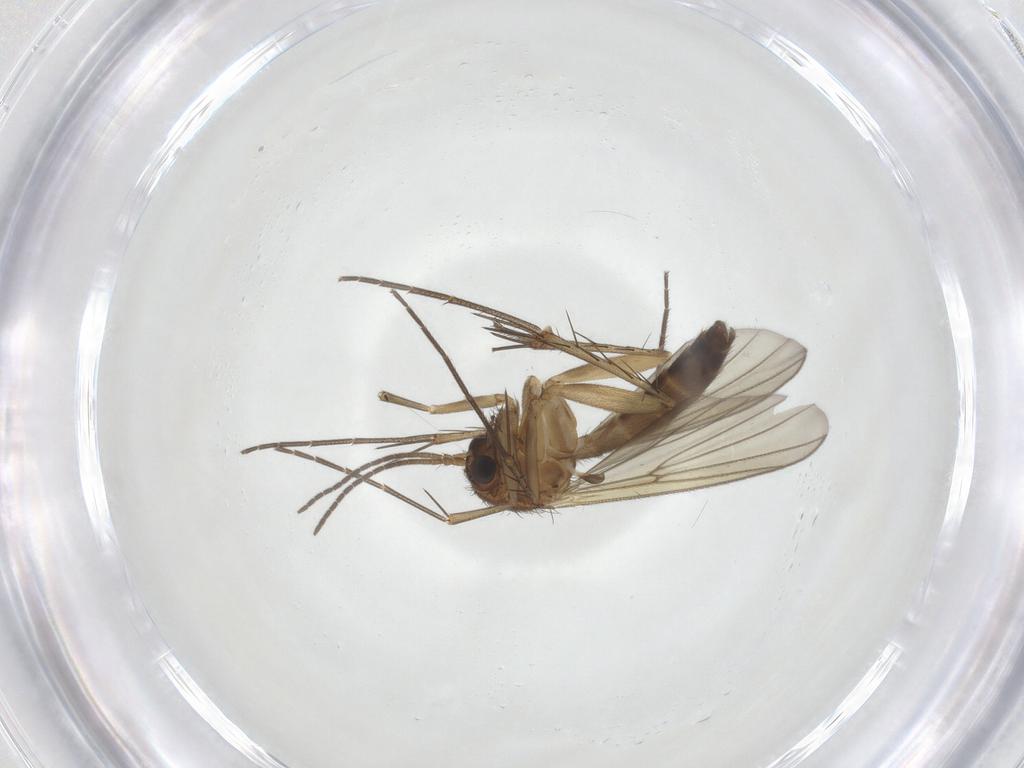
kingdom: Animalia
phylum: Arthropoda
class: Insecta
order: Diptera
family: Mycetophilidae
